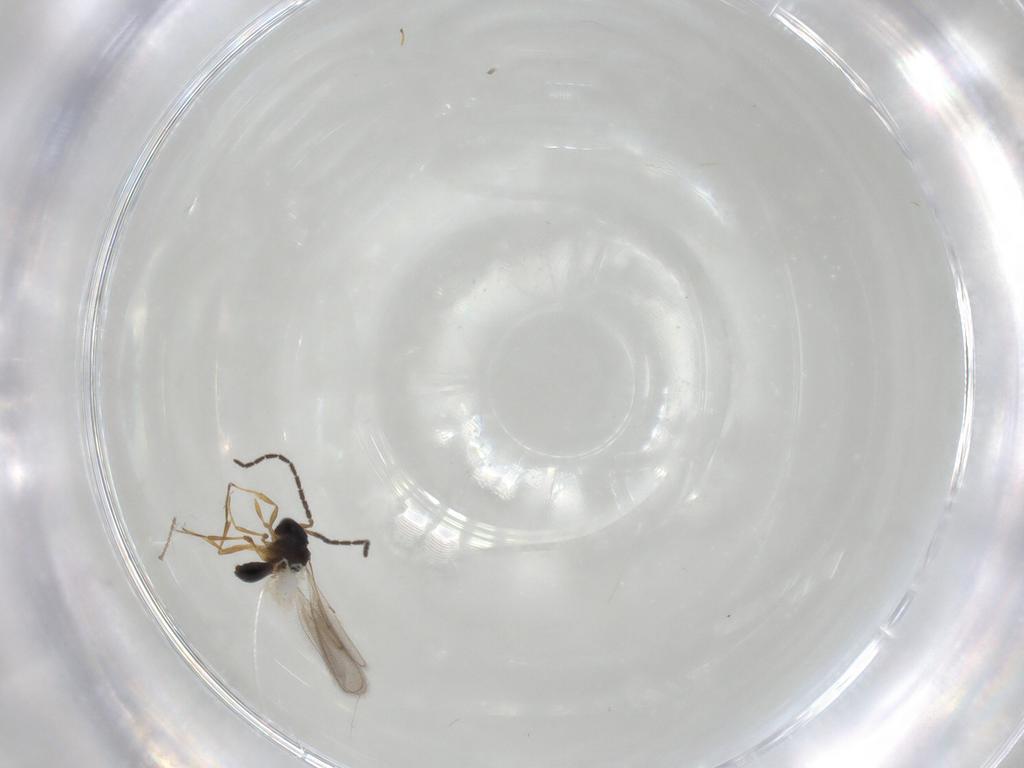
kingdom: Animalia
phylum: Arthropoda
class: Insecta
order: Hymenoptera
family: Scelionidae
